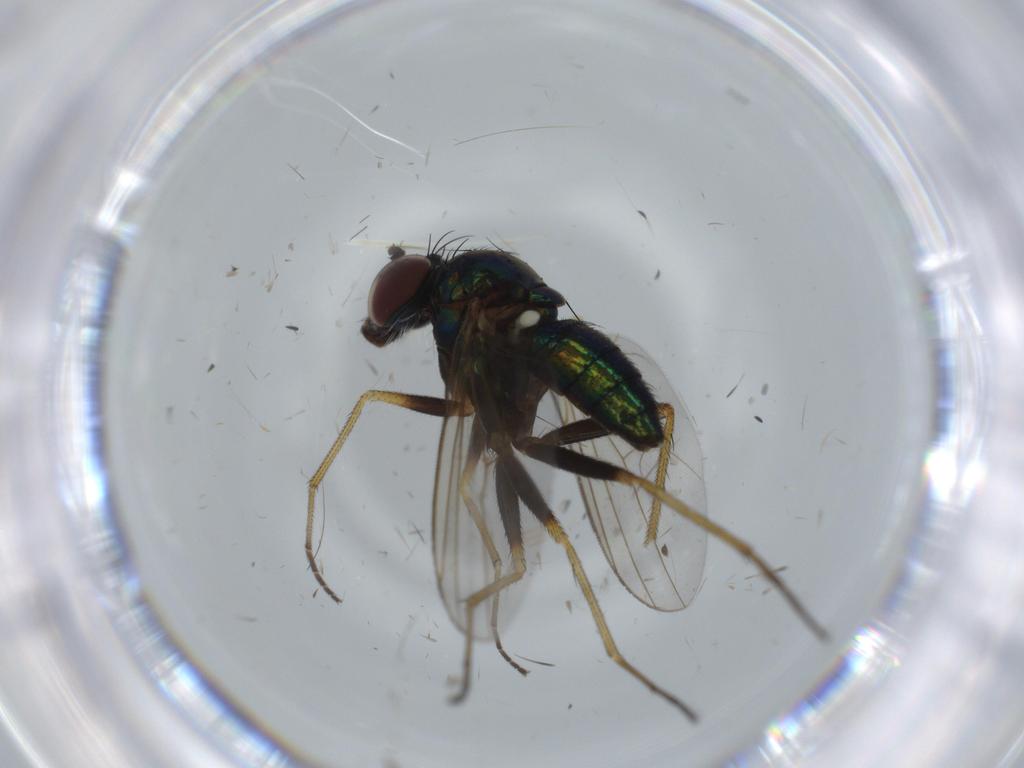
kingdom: Animalia
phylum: Arthropoda
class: Insecta
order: Diptera
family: Dolichopodidae
